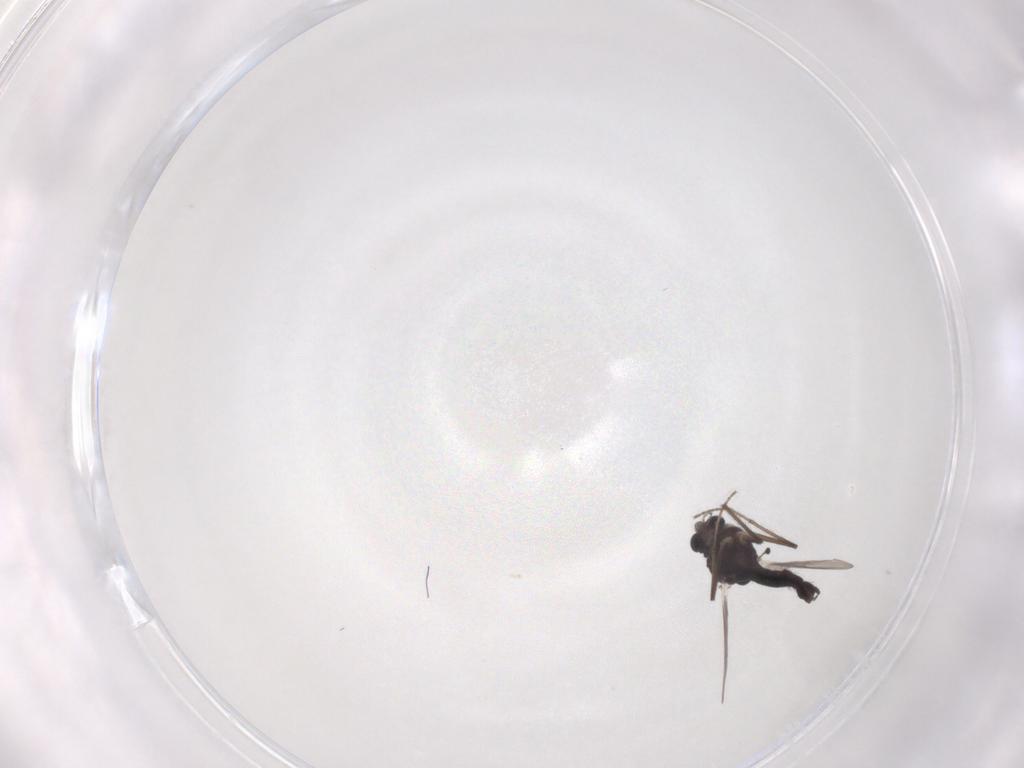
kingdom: Animalia
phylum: Arthropoda
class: Insecta
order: Diptera
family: Chironomidae
